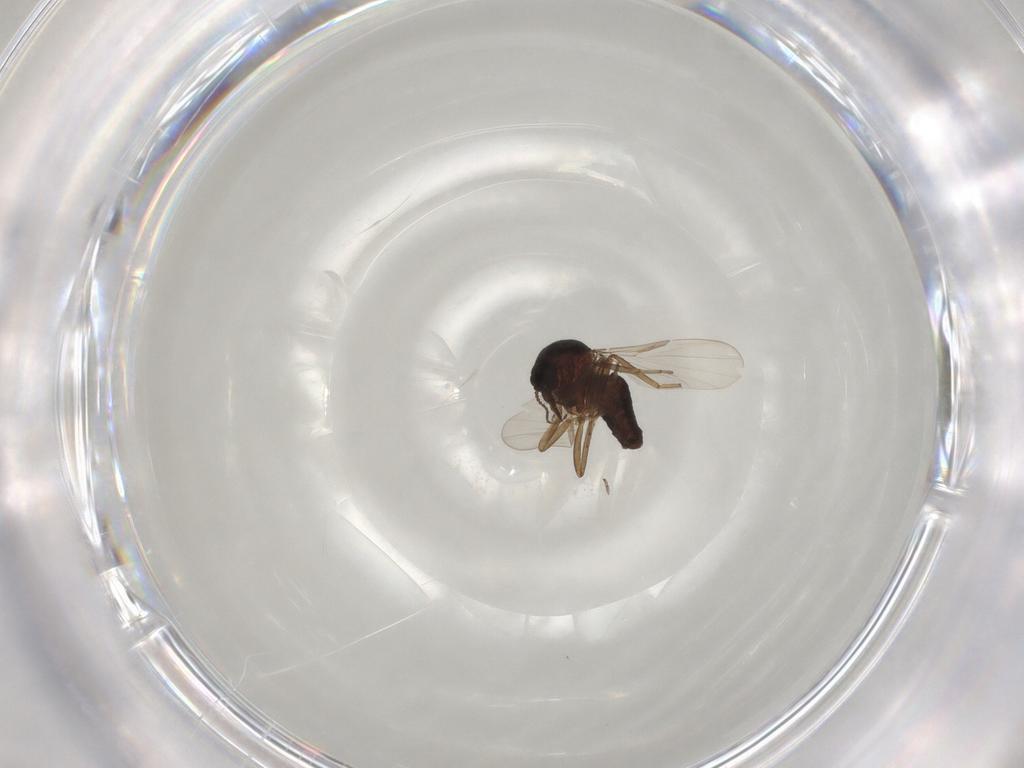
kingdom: Animalia
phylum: Arthropoda
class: Insecta
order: Diptera
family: Ceratopogonidae
